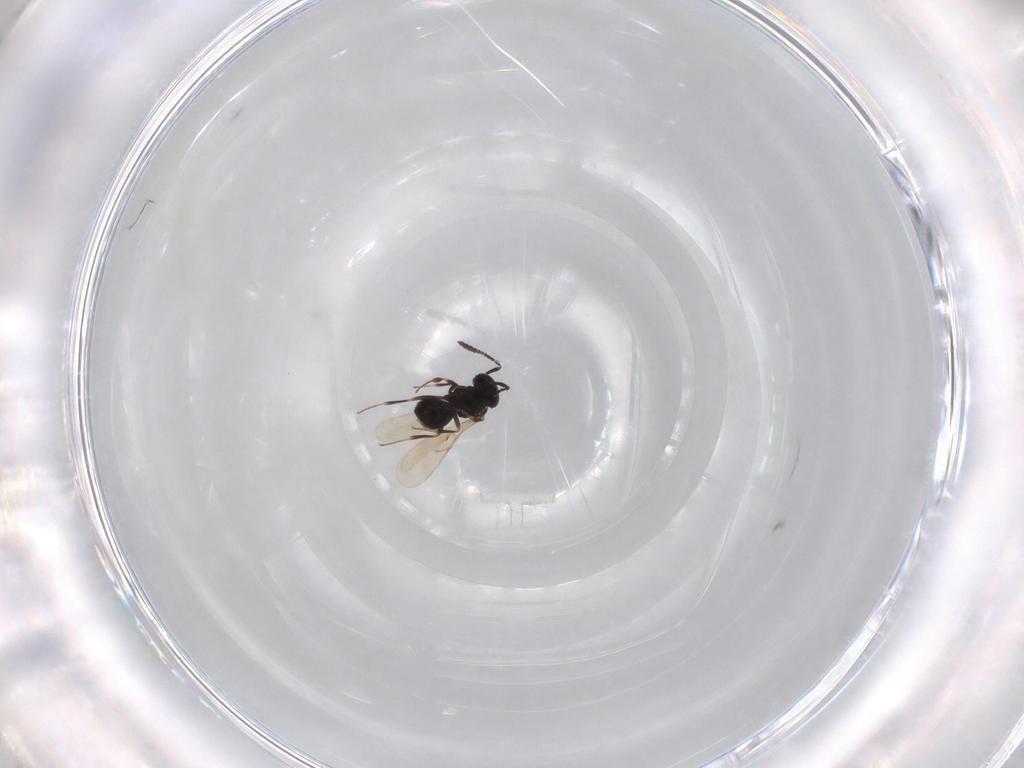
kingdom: Animalia
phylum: Arthropoda
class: Insecta
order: Hymenoptera
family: Scelionidae
